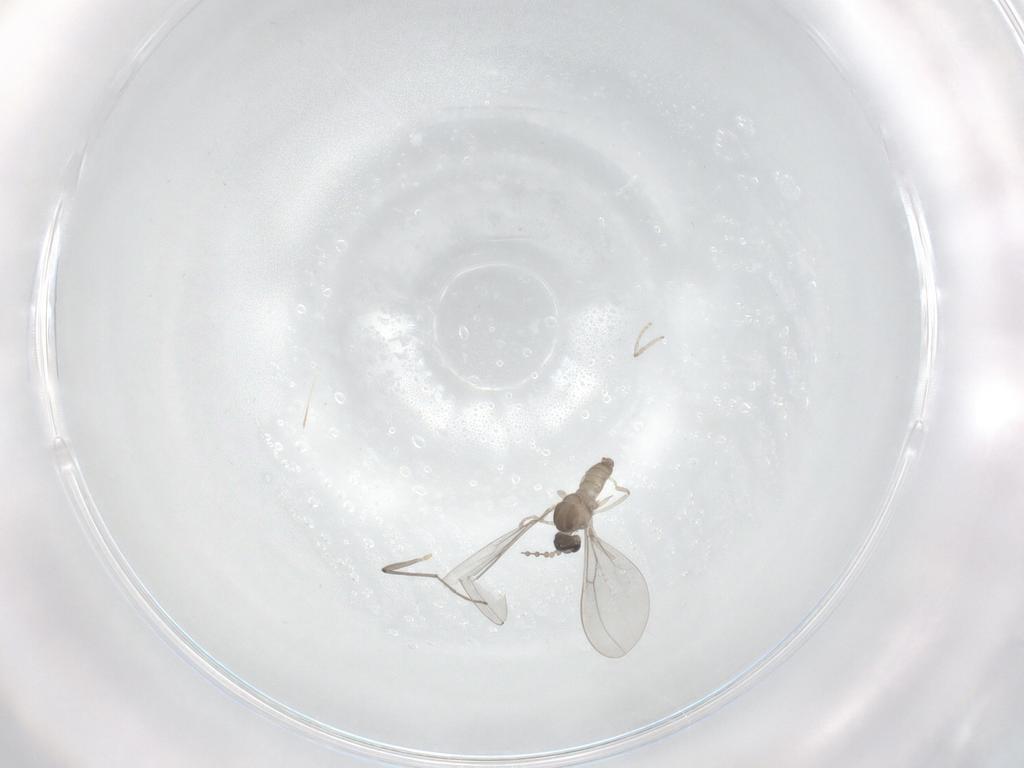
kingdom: Animalia
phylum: Arthropoda
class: Insecta
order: Diptera
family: Cecidomyiidae
